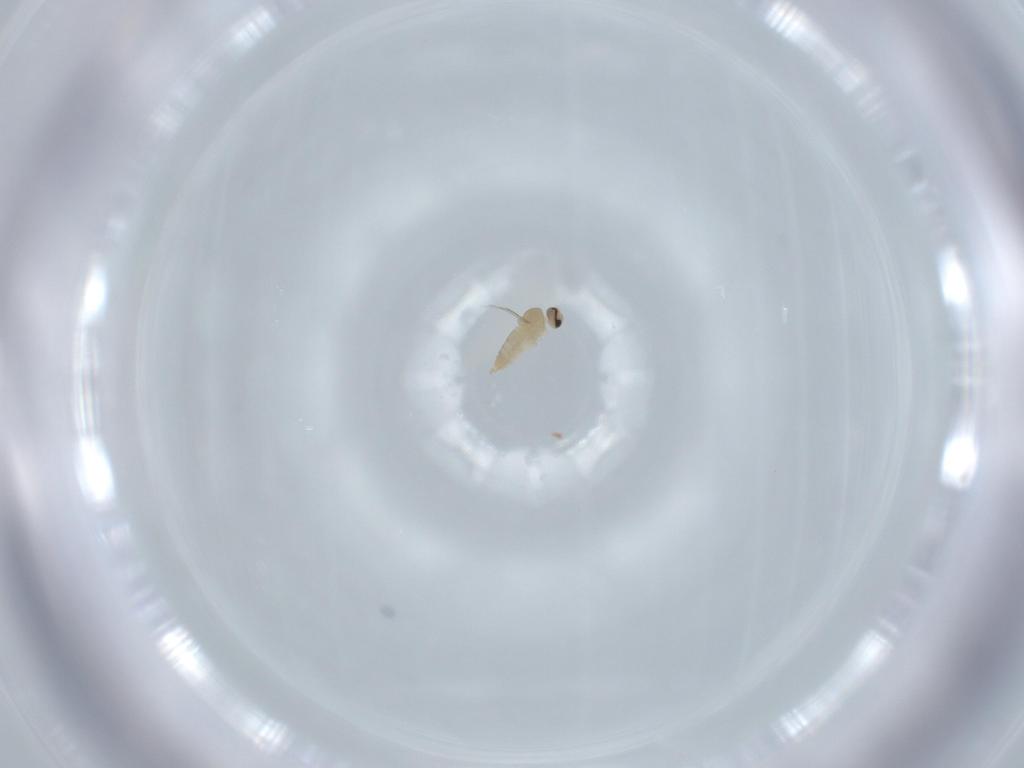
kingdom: Animalia
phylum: Arthropoda
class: Insecta
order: Diptera
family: Cecidomyiidae
